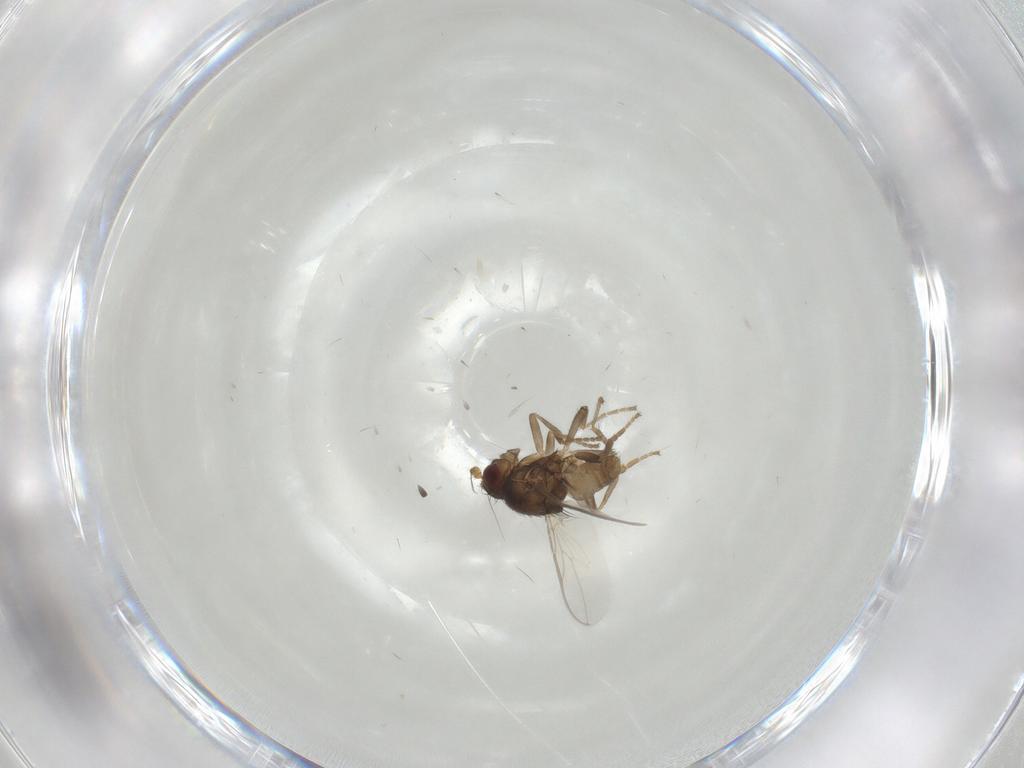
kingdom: Animalia
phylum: Arthropoda
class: Insecta
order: Diptera
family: Sphaeroceridae
